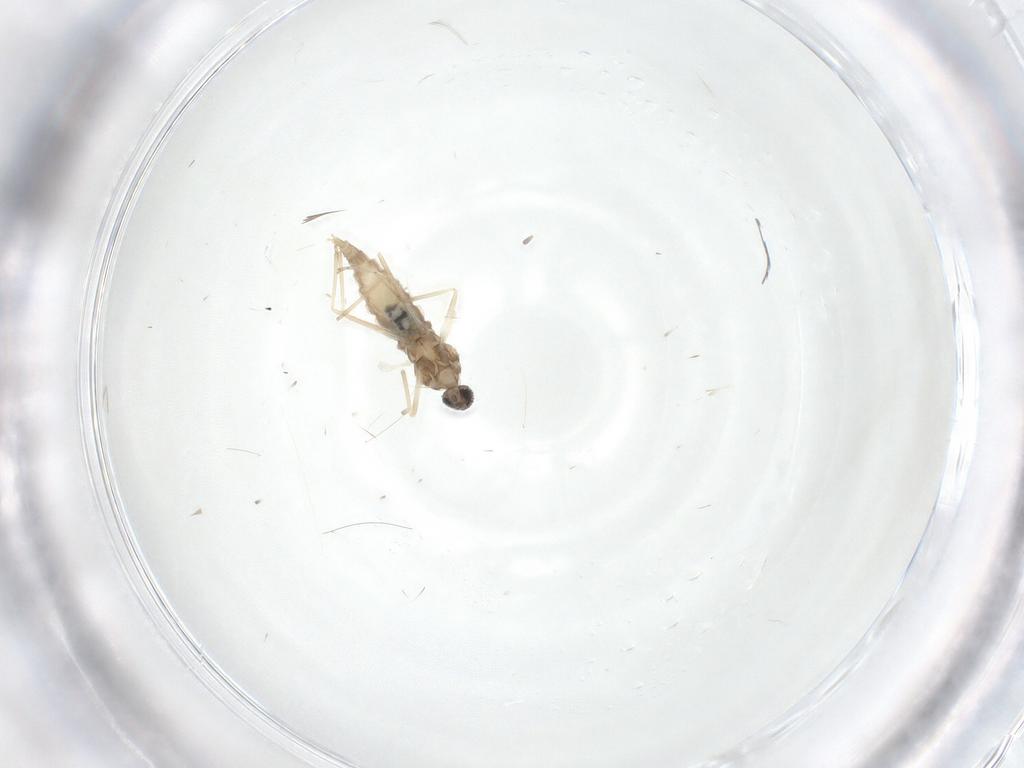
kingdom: Animalia
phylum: Arthropoda
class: Insecta
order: Diptera
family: Cecidomyiidae
